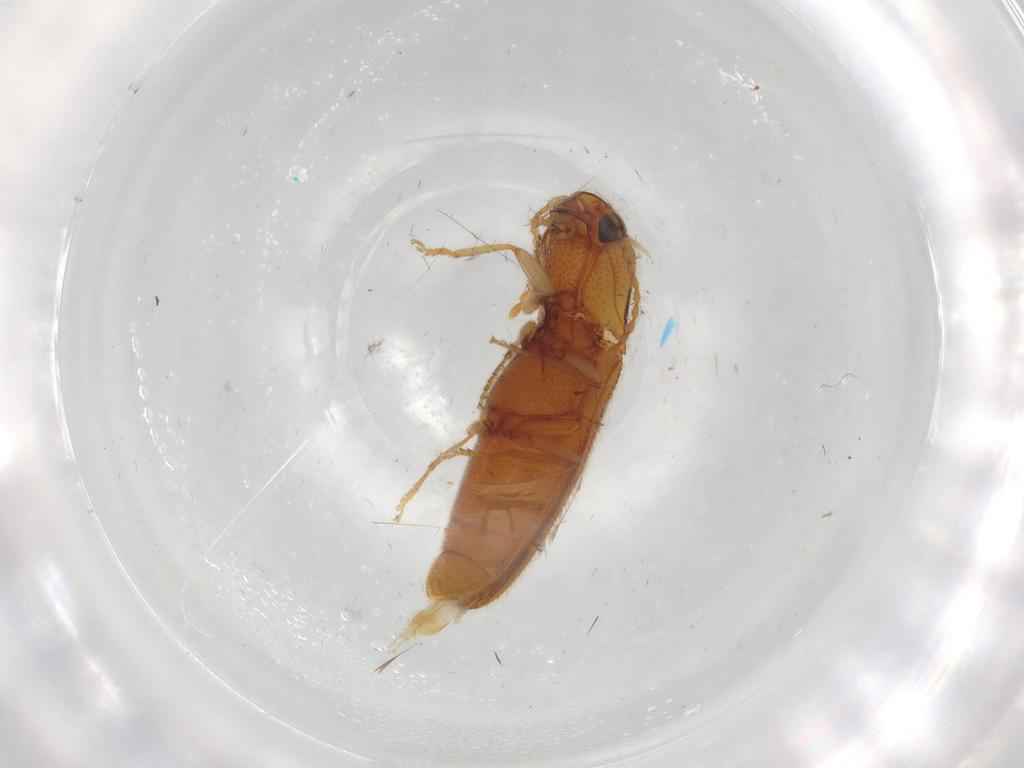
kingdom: Animalia
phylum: Arthropoda
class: Insecta
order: Coleoptera
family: Elateridae
